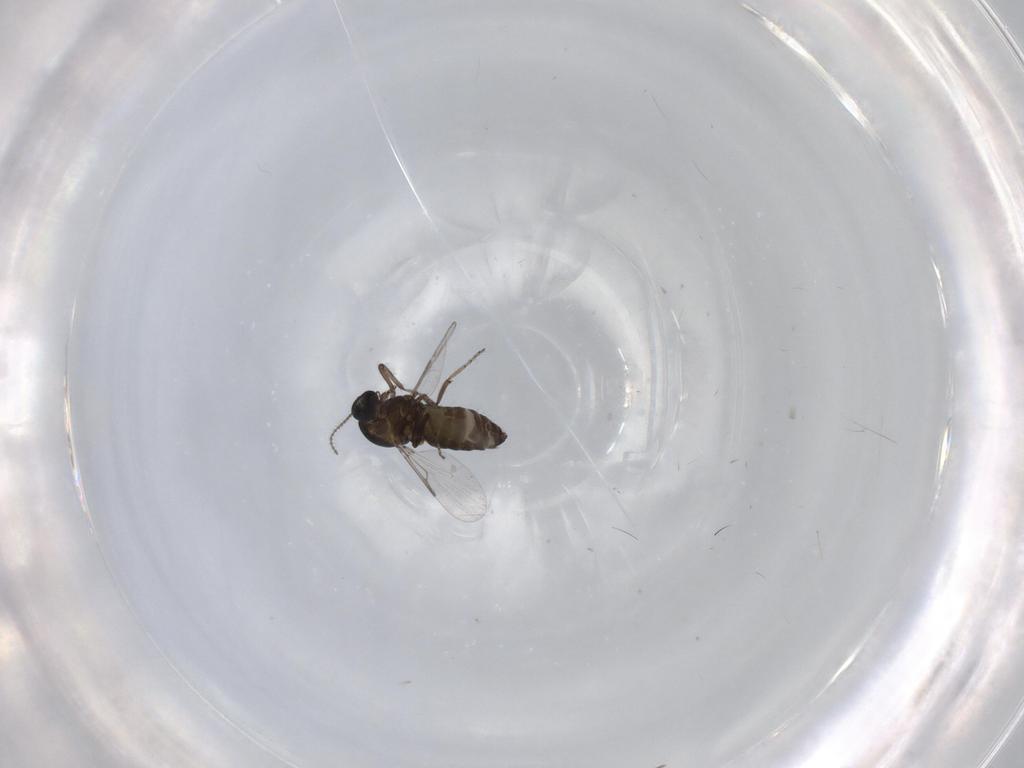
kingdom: Animalia
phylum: Arthropoda
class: Insecta
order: Diptera
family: Ceratopogonidae
